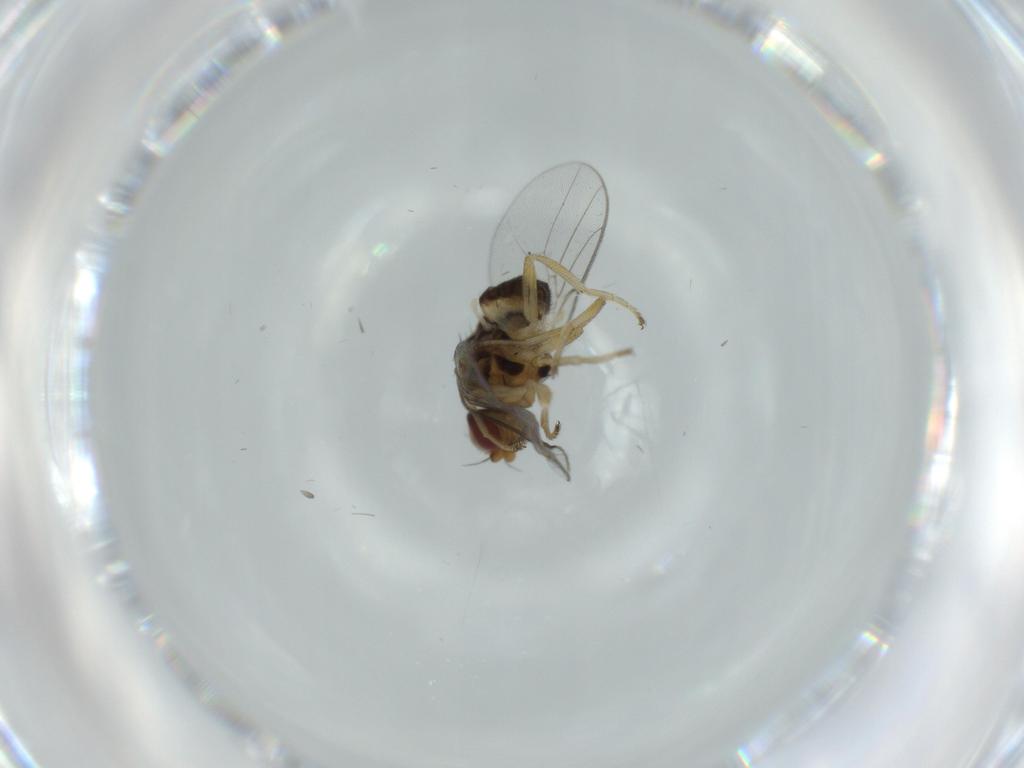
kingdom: Animalia
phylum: Arthropoda
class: Insecta
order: Diptera
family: Chloropidae
